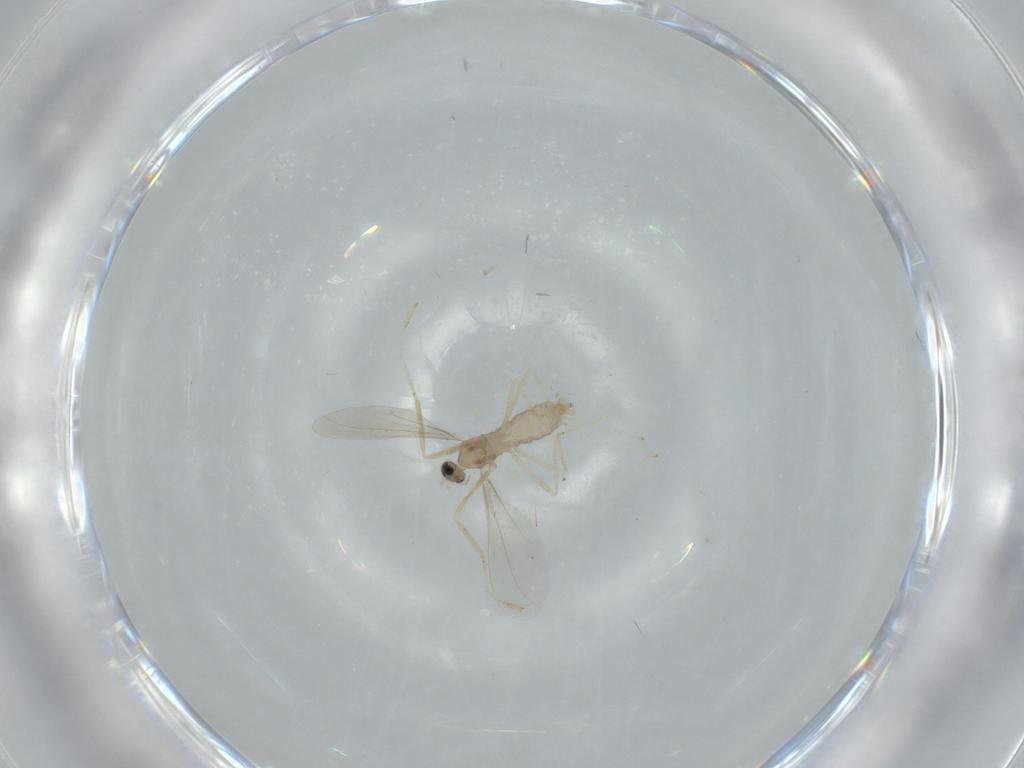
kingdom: Animalia
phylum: Arthropoda
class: Insecta
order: Diptera
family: Cecidomyiidae
